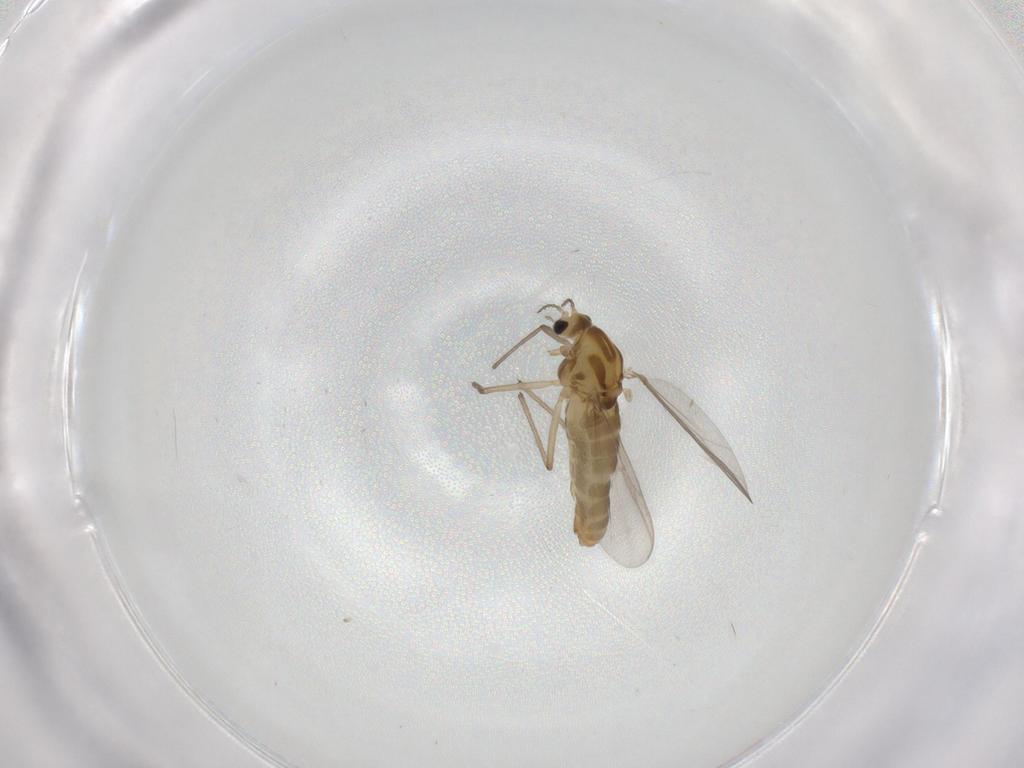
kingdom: Animalia
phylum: Arthropoda
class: Insecta
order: Diptera
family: Chironomidae
